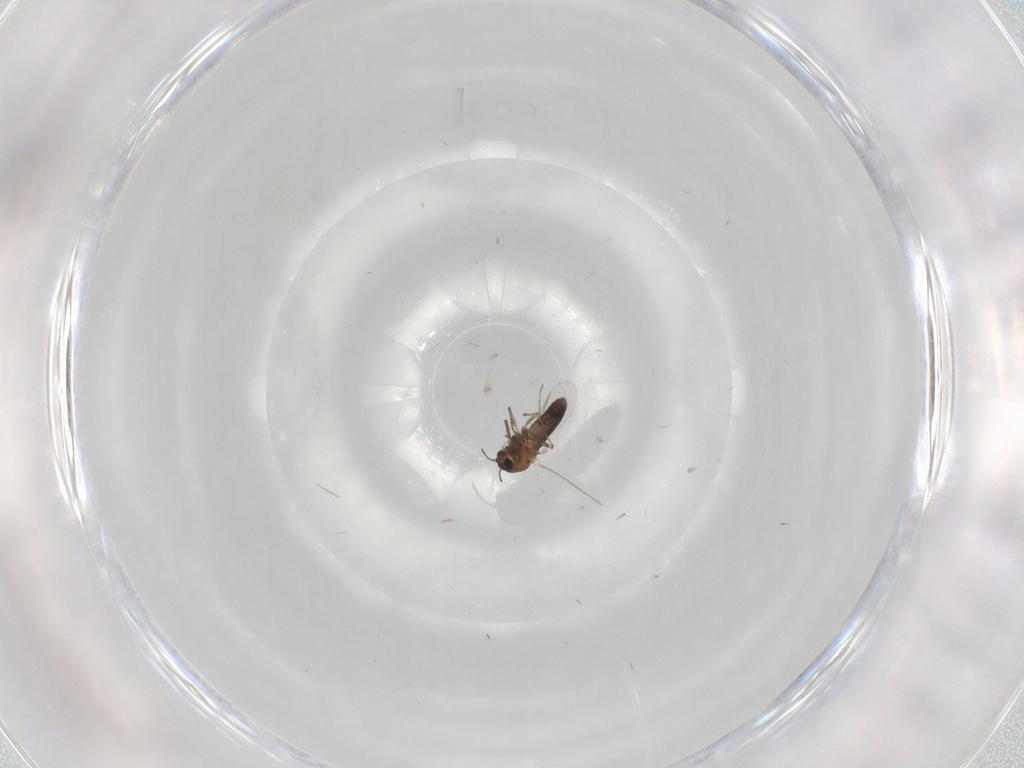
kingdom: Animalia
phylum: Arthropoda
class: Insecta
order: Diptera
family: Chironomidae
